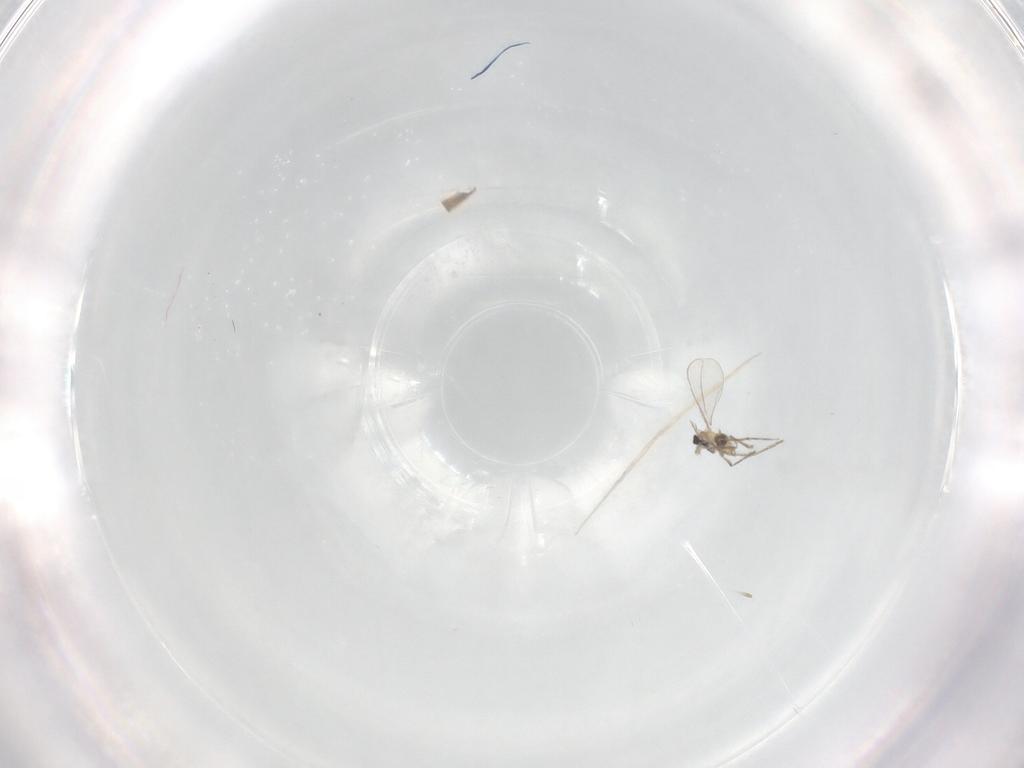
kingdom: Animalia
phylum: Arthropoda
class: Insecta
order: Diptera
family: Cecidomyiidae
